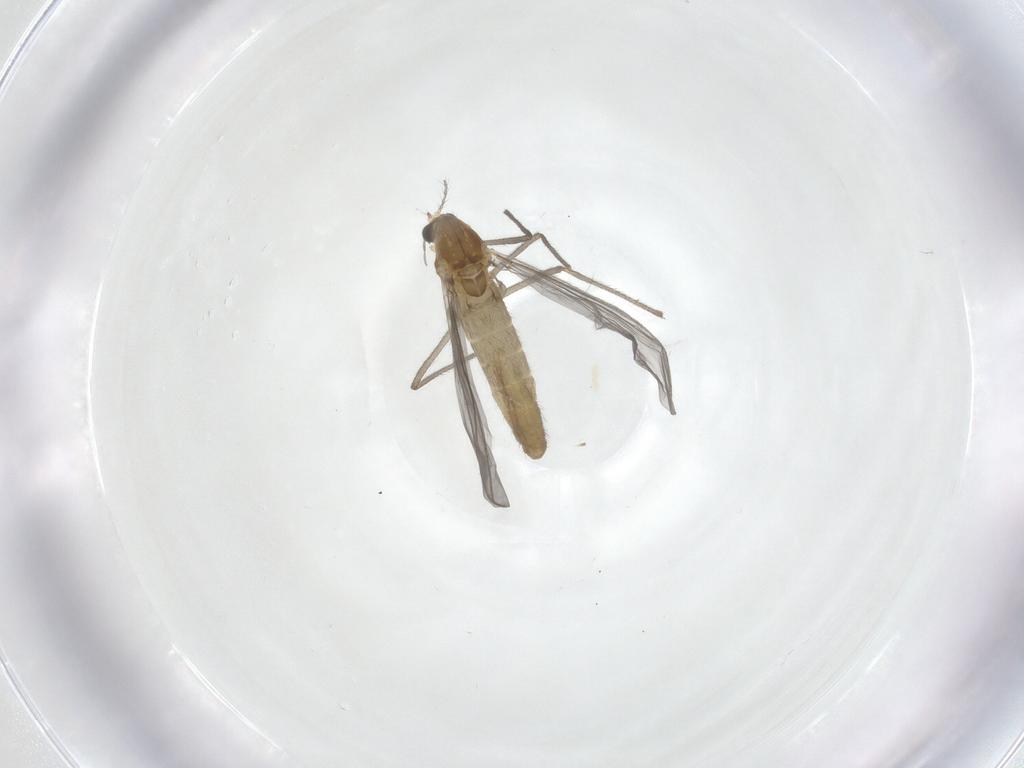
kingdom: Animalia
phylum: Arthropoda
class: Insecta
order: Diptera
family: Chironomidae
